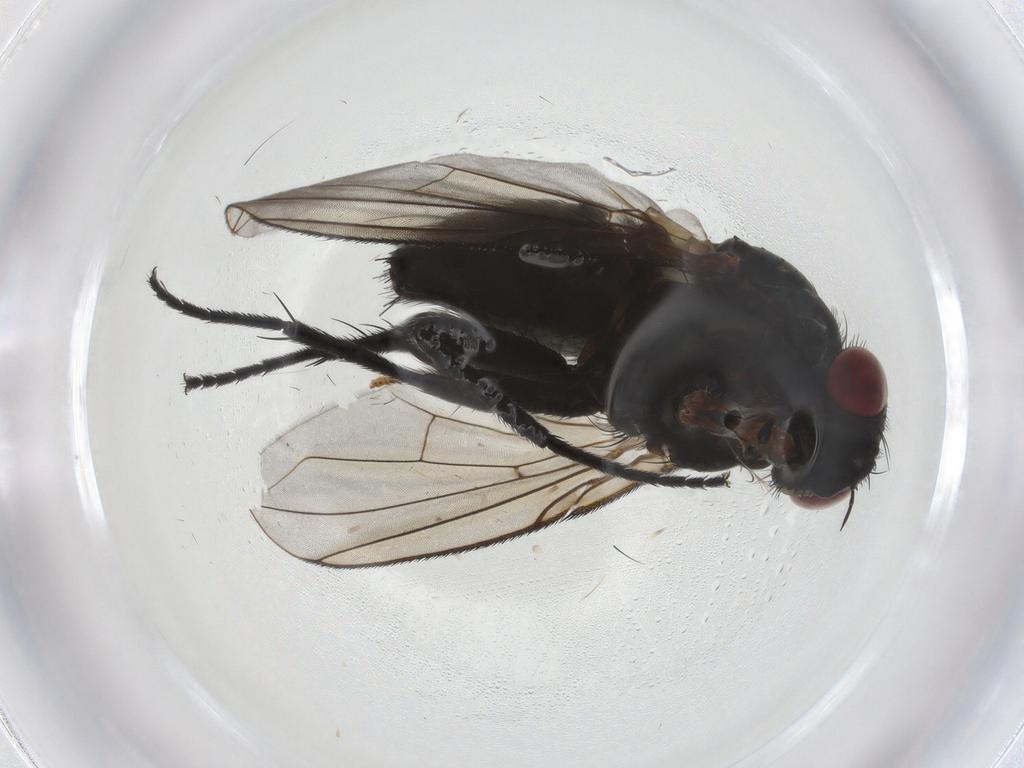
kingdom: Animalia
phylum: Arthropoda
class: Insecta
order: Diptera
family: Tachinidae
